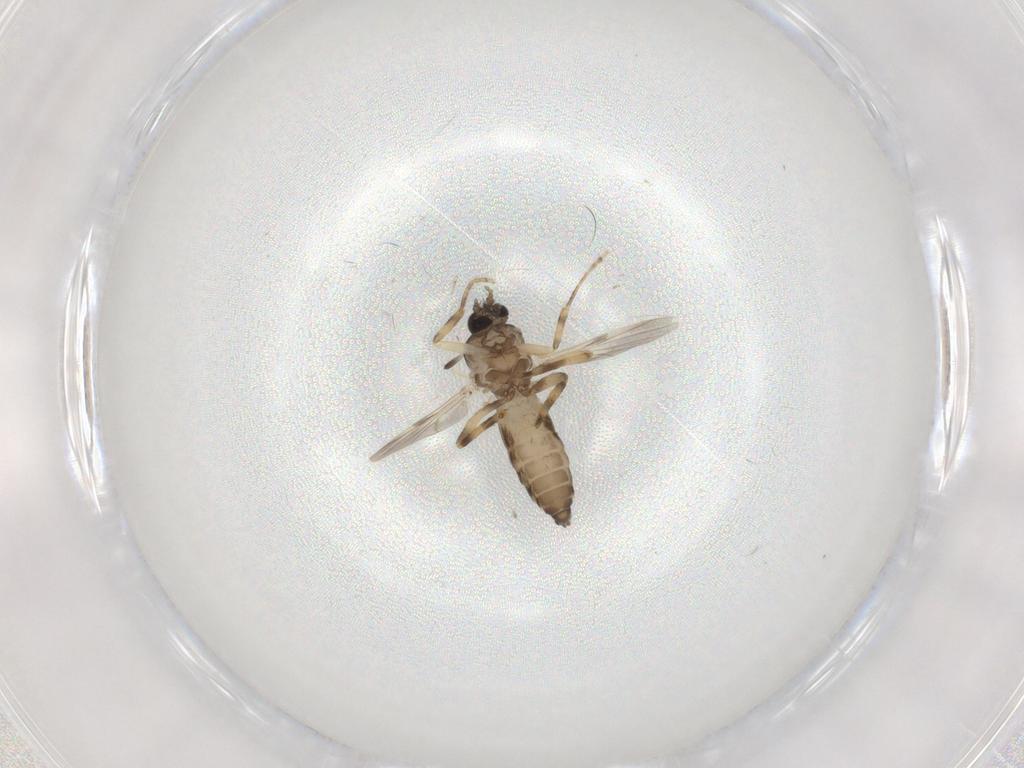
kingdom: Animalia
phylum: Arthropoda
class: Insecta
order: Diptera
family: Ceratopogonidae
